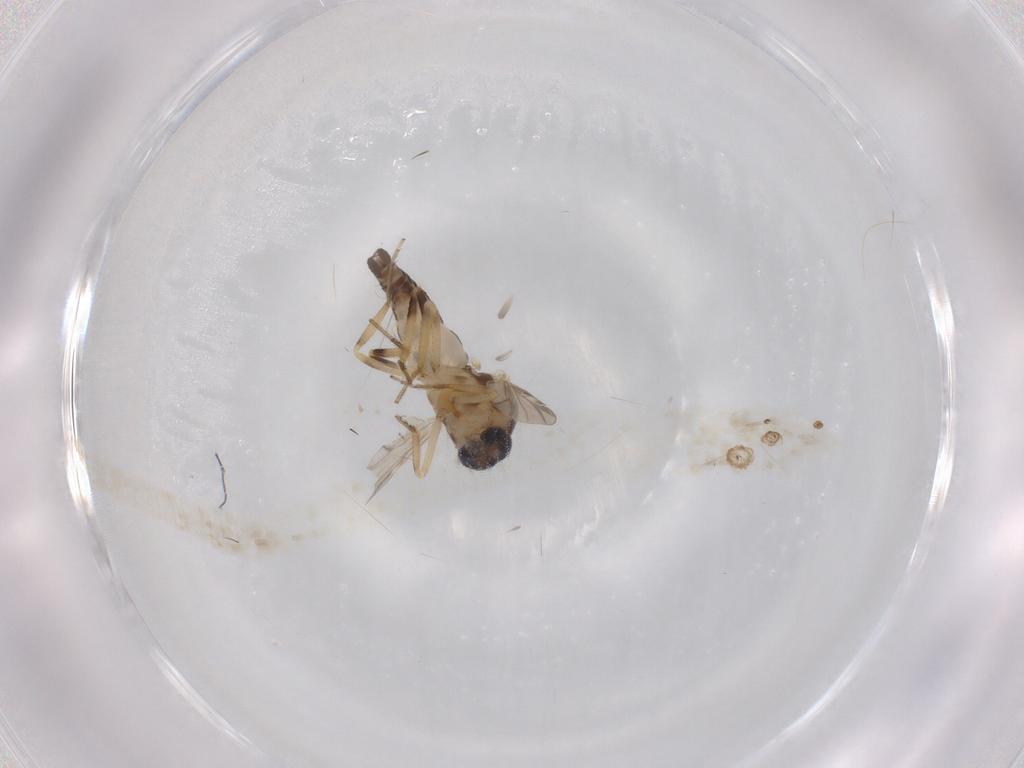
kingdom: Animalia
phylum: Arthropoda
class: Insecta
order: Diptera
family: Ceratopogonidae
